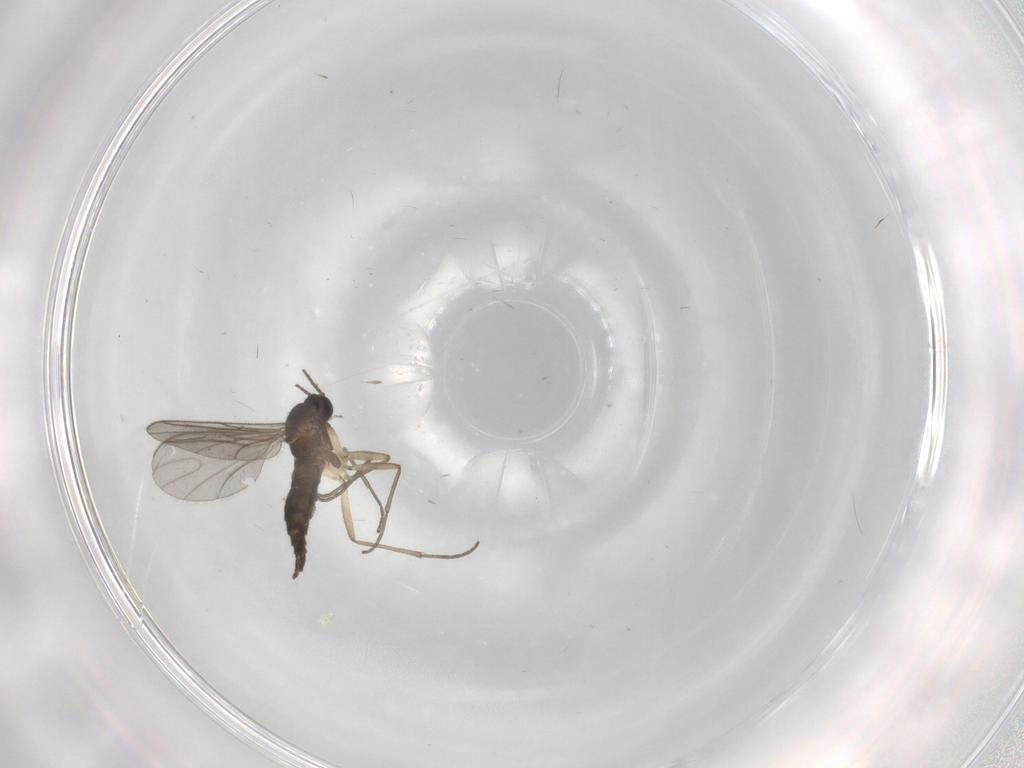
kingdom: Animalia
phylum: Arthropoda
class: Insecta
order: Diptera
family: Sciaridae
